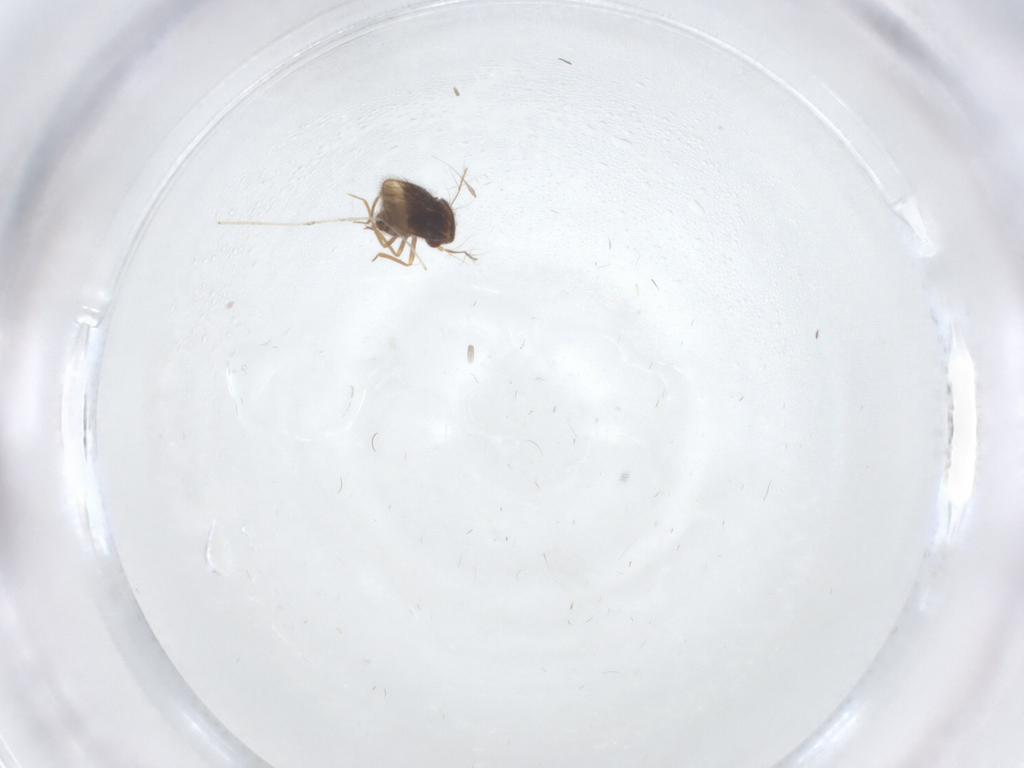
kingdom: Animalia
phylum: Arthropoda
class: Insecta
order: Hemiptera
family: Schizopteridae
